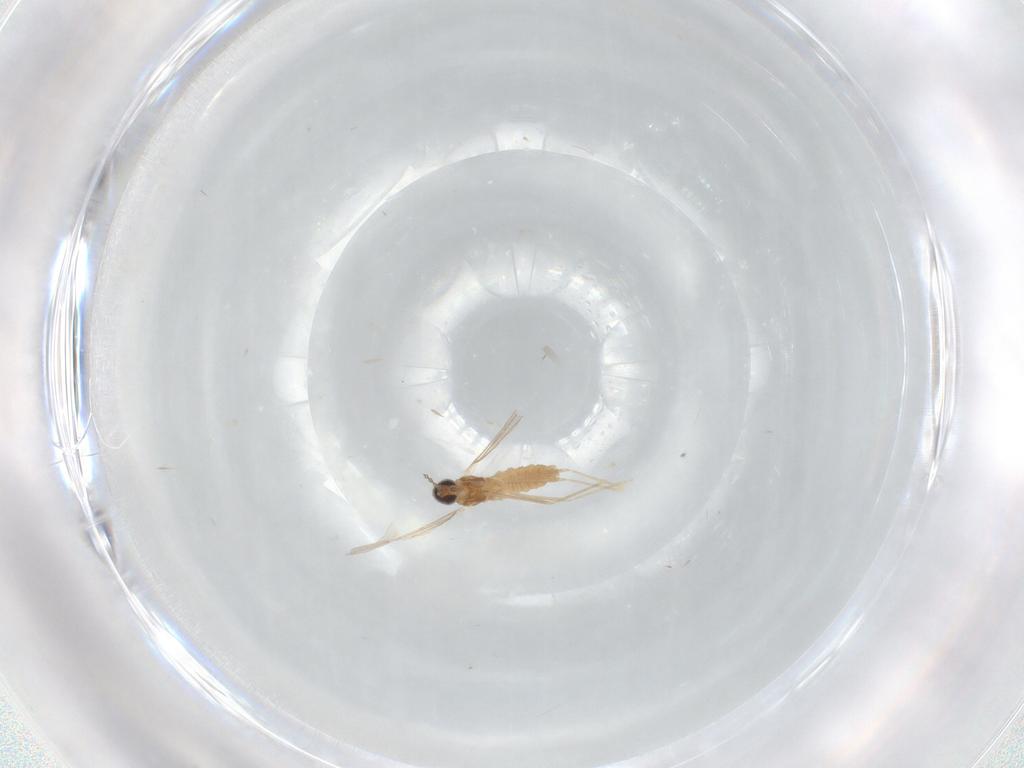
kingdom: Animalia
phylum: Arthropoda
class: Insecta
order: Diptera
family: Cecidomyiidae
